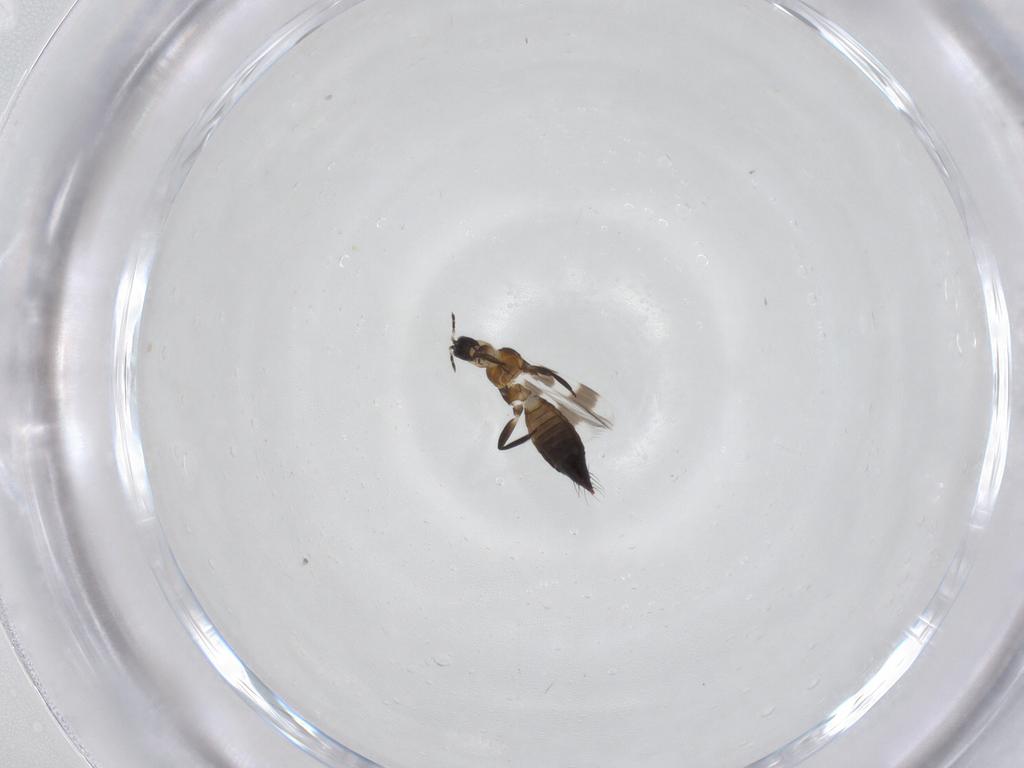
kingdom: Animalia
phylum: Arthropoda
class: Insecta
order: Thysanoptera
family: Aeolothripidae
